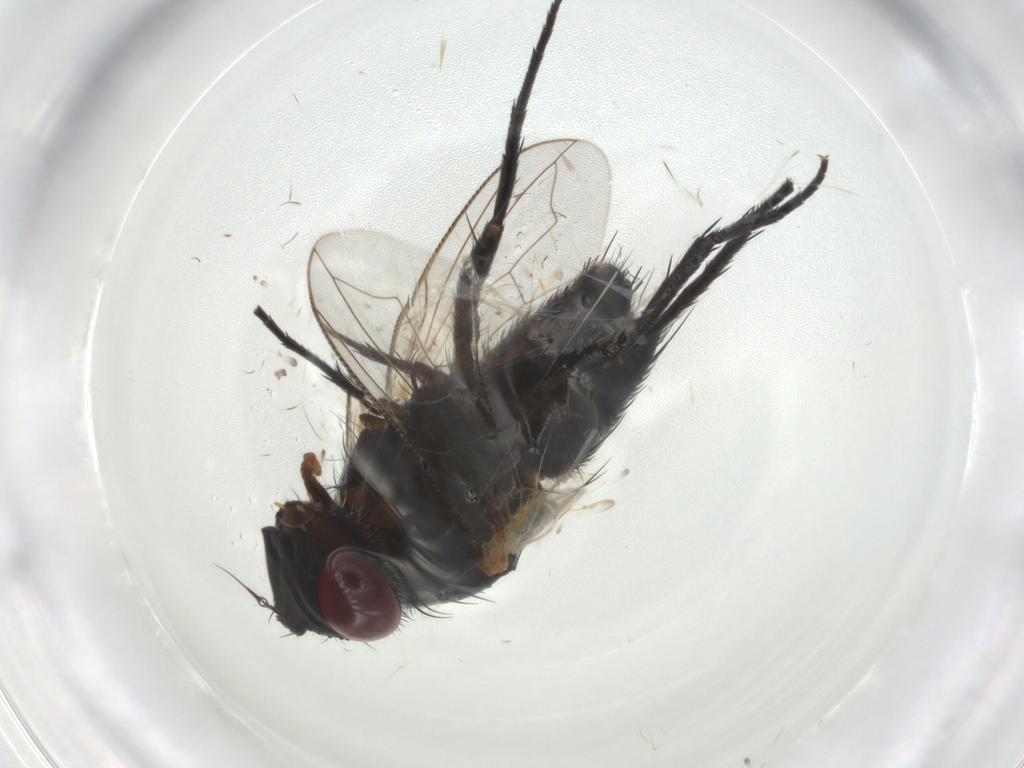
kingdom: Animalia
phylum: Arthropoda
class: Insecta
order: Diptera
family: Tachinidae
